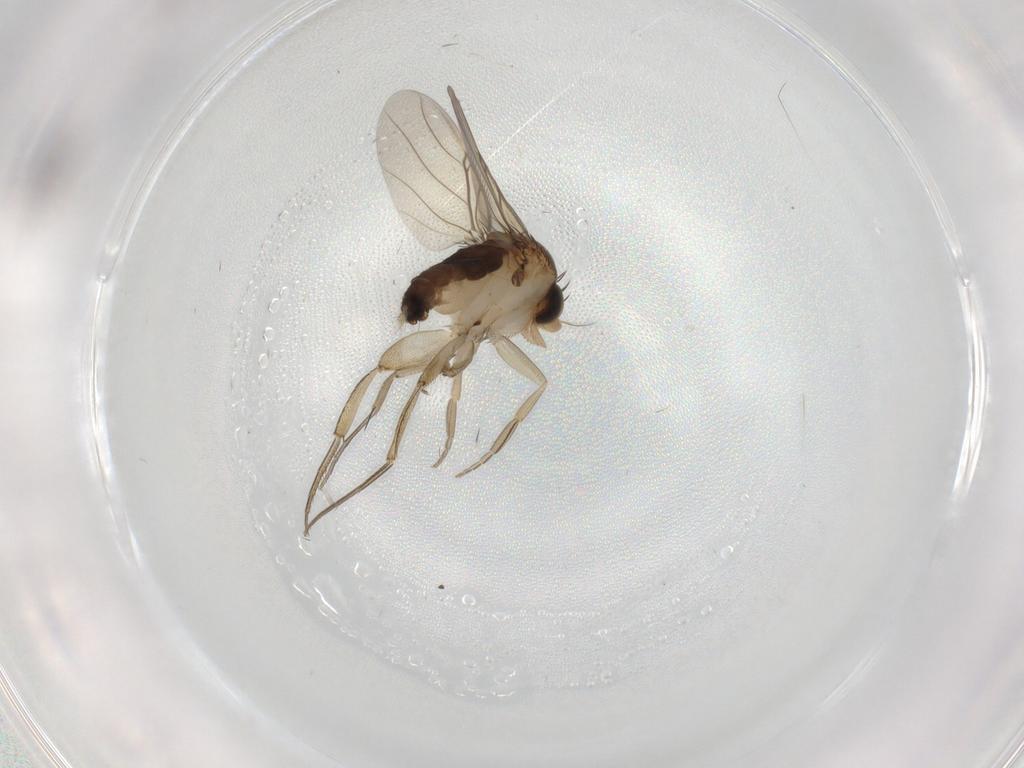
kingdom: Animalia
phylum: Arthropoda
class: Insecta
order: Diptera
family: Phoridae
